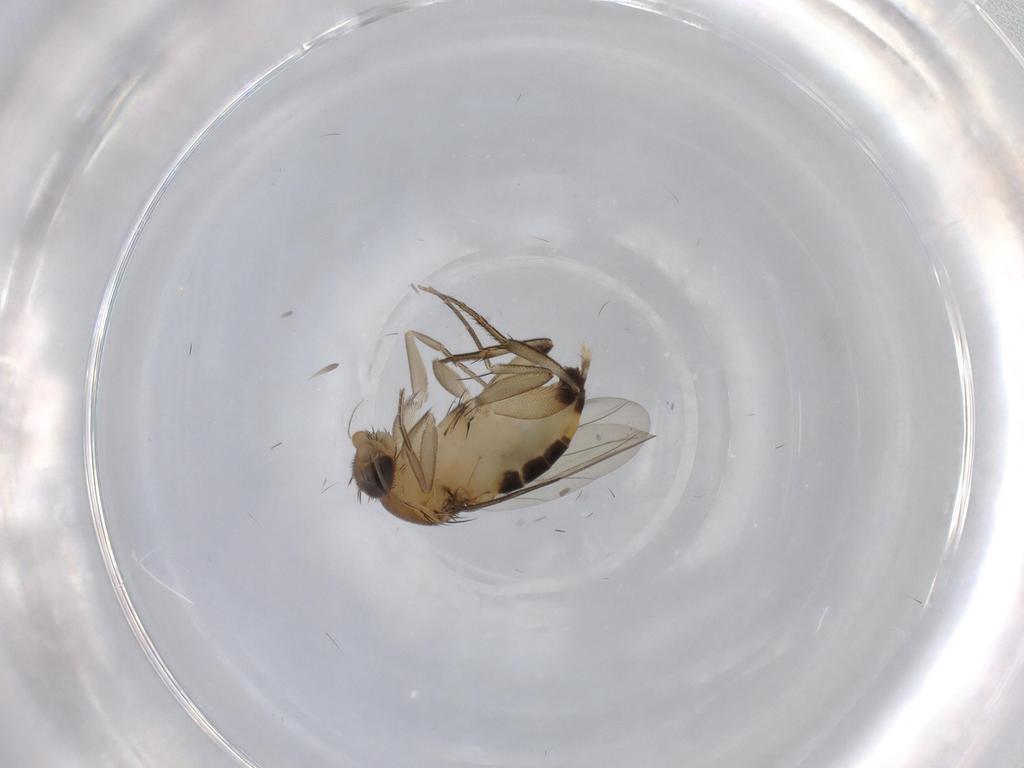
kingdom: Animalia
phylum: Arthropoda
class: Insecta
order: Diptera
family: Phoridae
